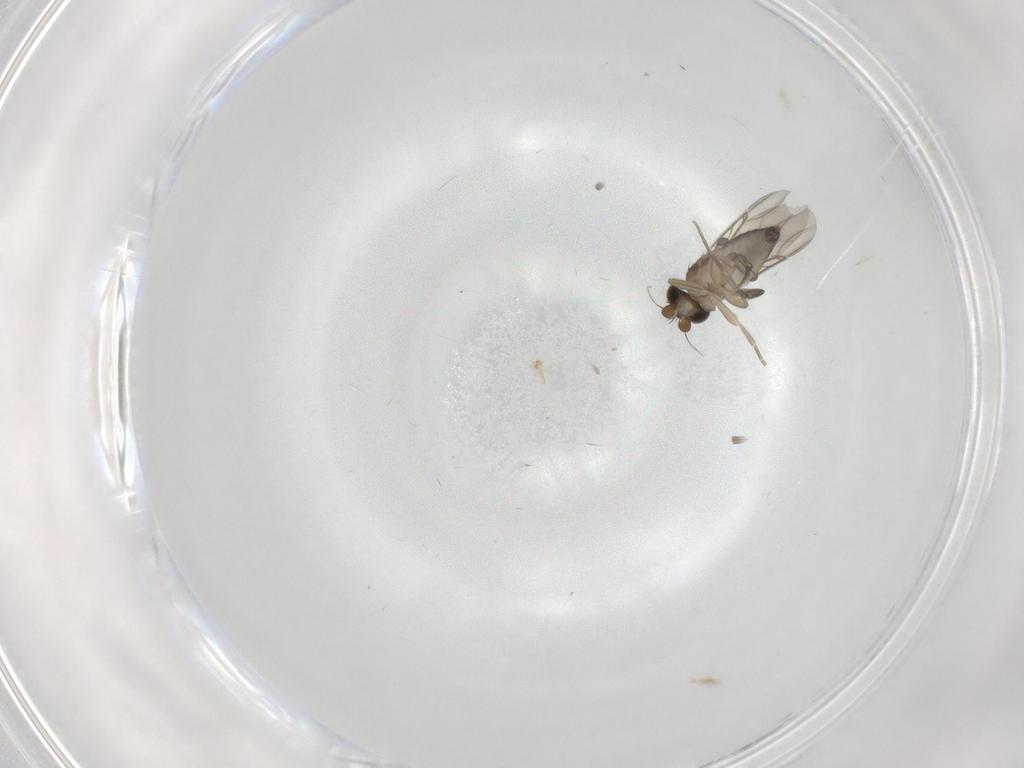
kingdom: Animalia
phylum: Arthropoda
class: Insecta
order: Diptera
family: Phoridae
